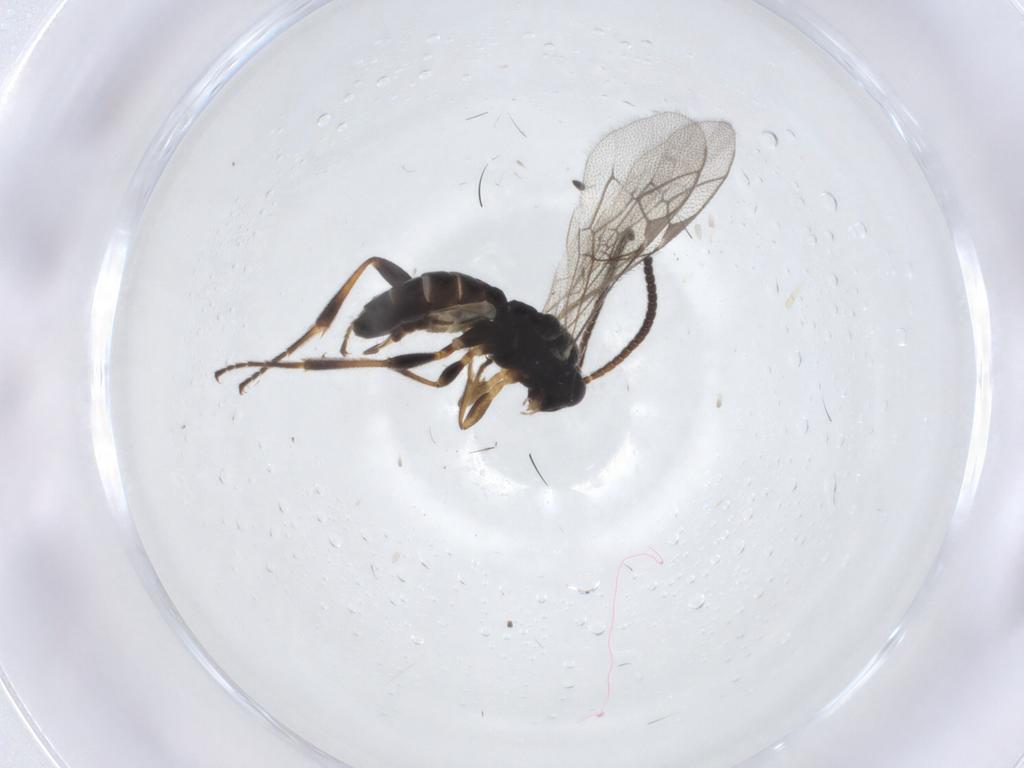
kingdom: Animalia
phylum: Arthropoda
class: Insecta
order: Hymenoptera
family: Ichneumonidae
